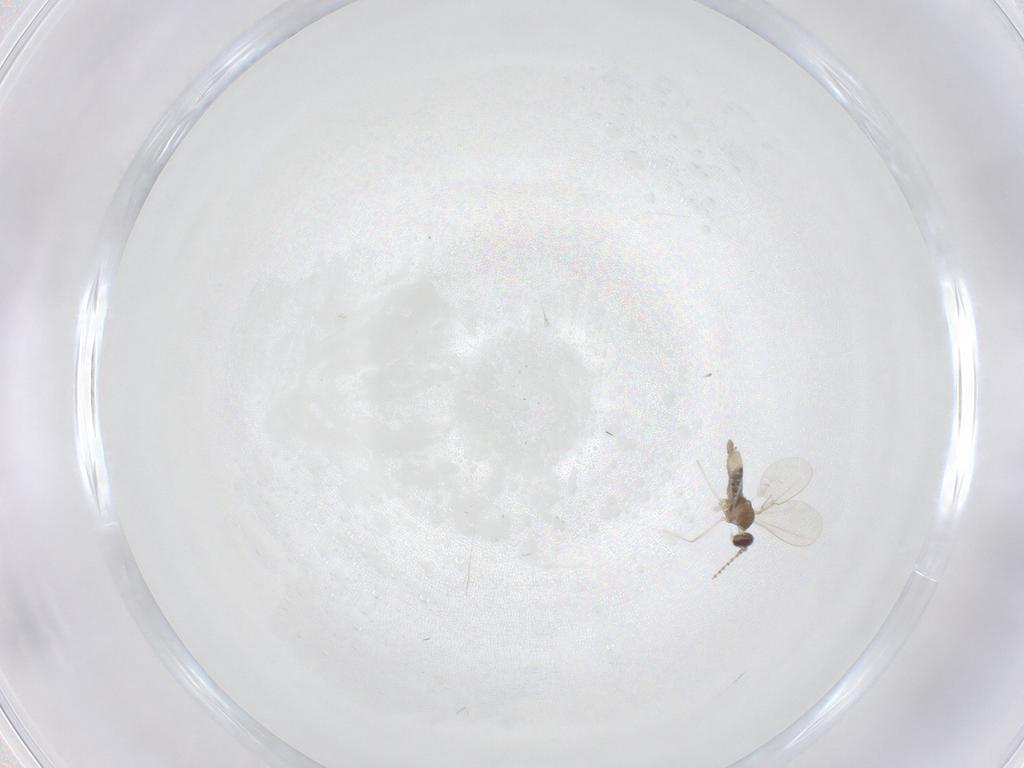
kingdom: Animalia
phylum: Arthropoda
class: Insecta
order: Diptera
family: Cecidomyiidae
